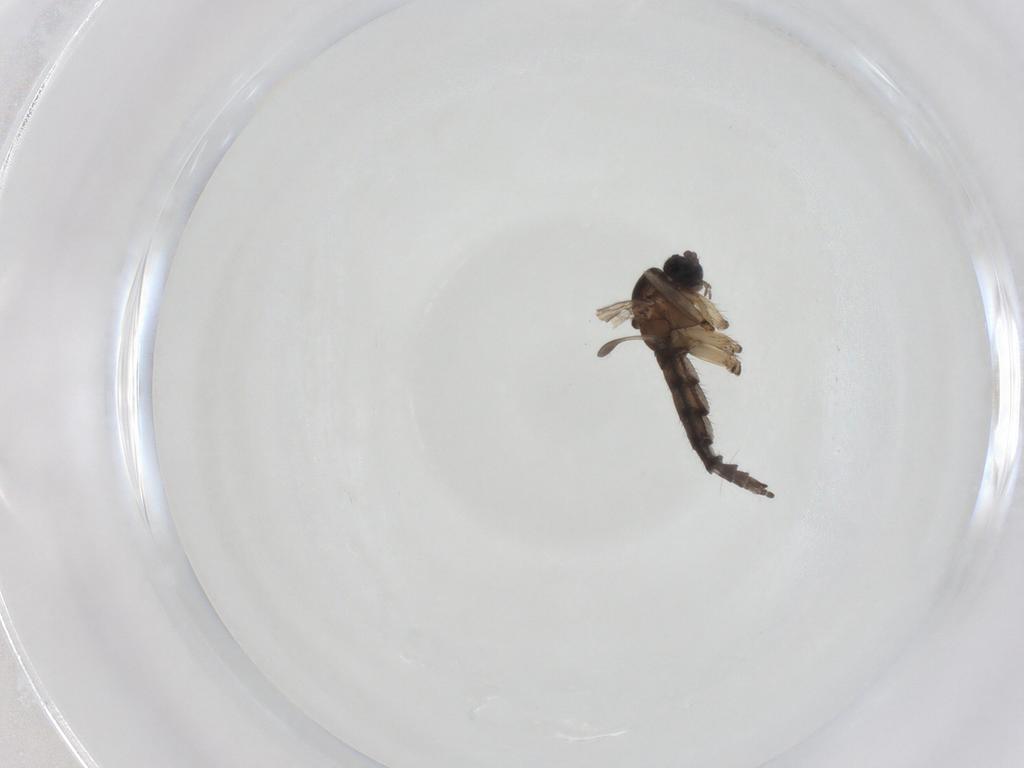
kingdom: Animalia
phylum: Arthropoda
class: Insecta
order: Diptera
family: Sciaridae
